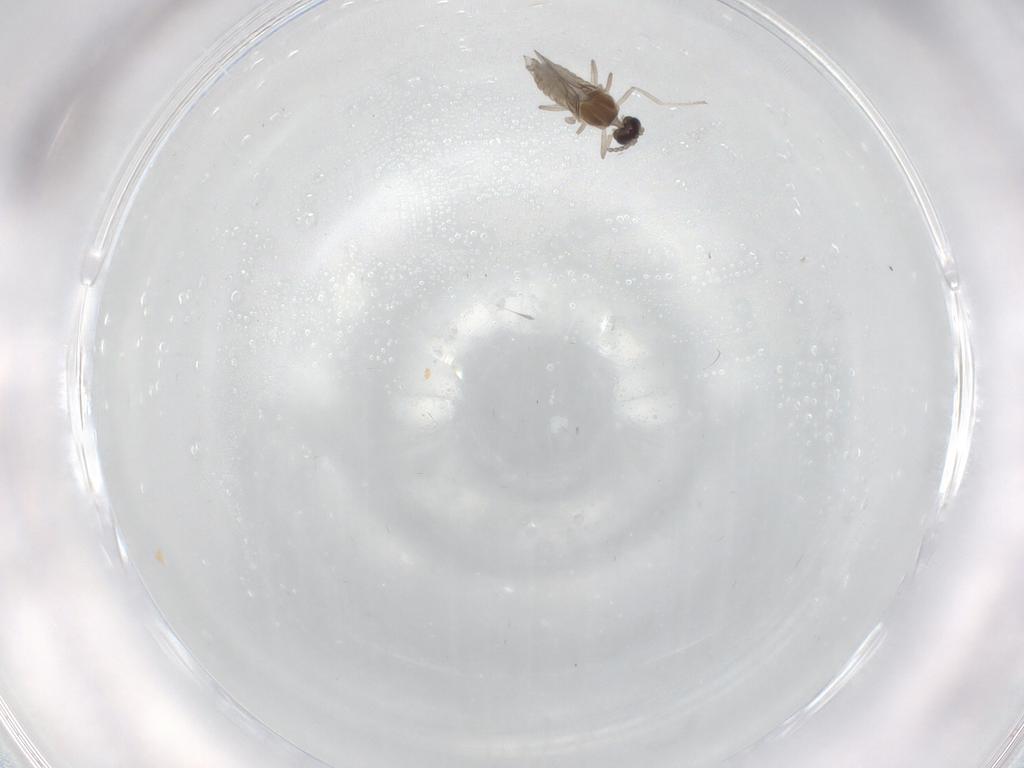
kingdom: Animalia
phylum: Arthropoda
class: Insecta
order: Diptera
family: Cecidomyiidae
